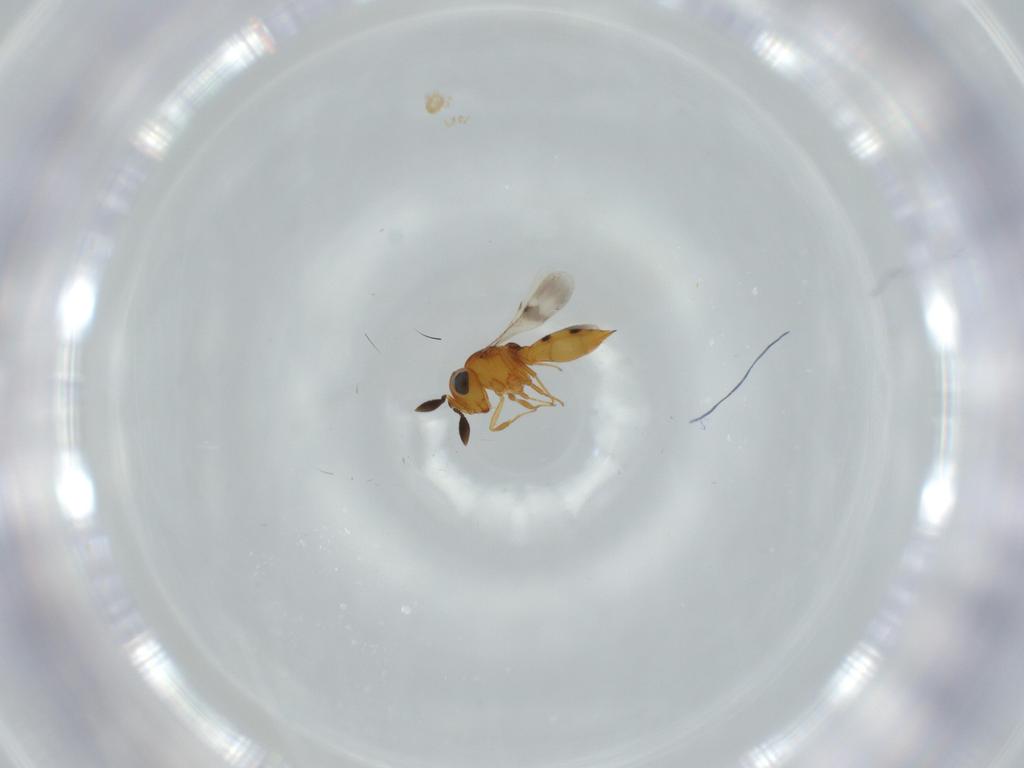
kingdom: Animalia
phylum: Arthropoda
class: Insecta
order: Hymenoptera
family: Scelionidae
